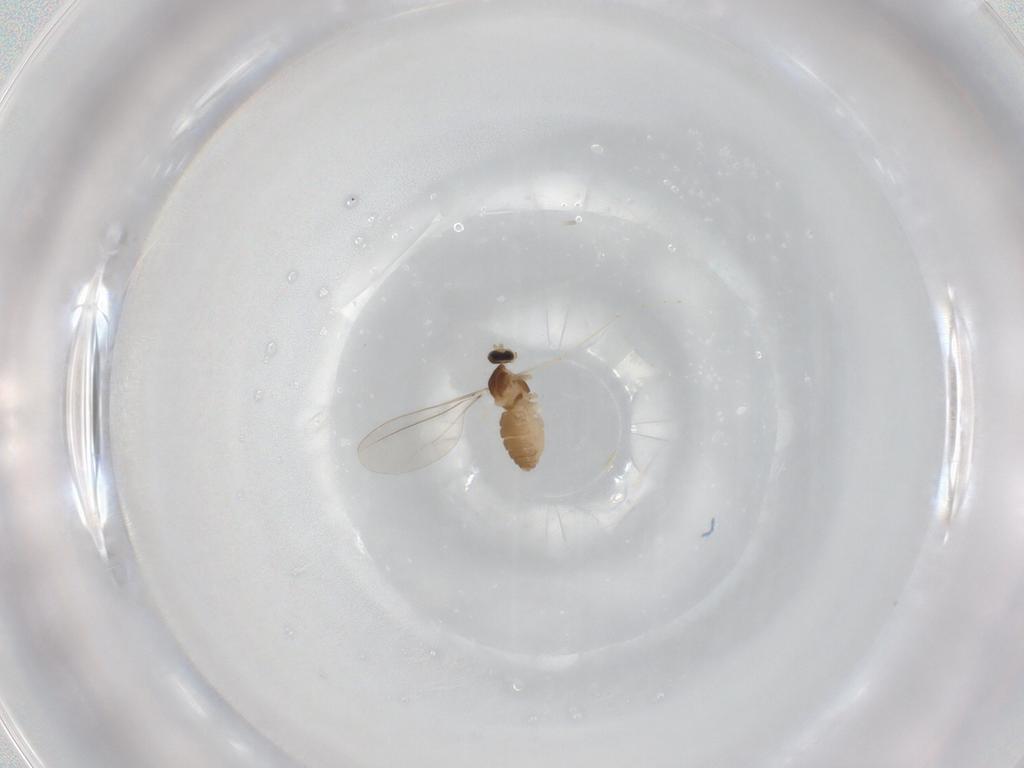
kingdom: Animalia
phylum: Arthropoda
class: Insecta
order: Diptera
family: Cecidomyiidae
